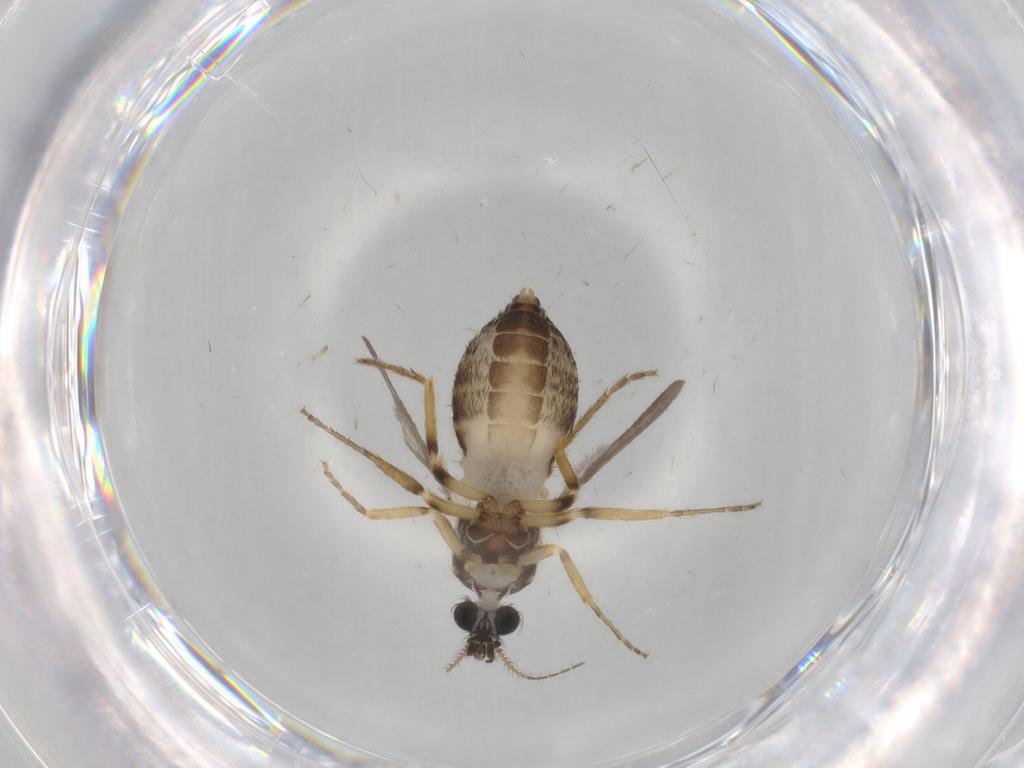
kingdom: Animalia
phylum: Arthropoda
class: Insecta
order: Diptera
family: Ceratopogonidae
